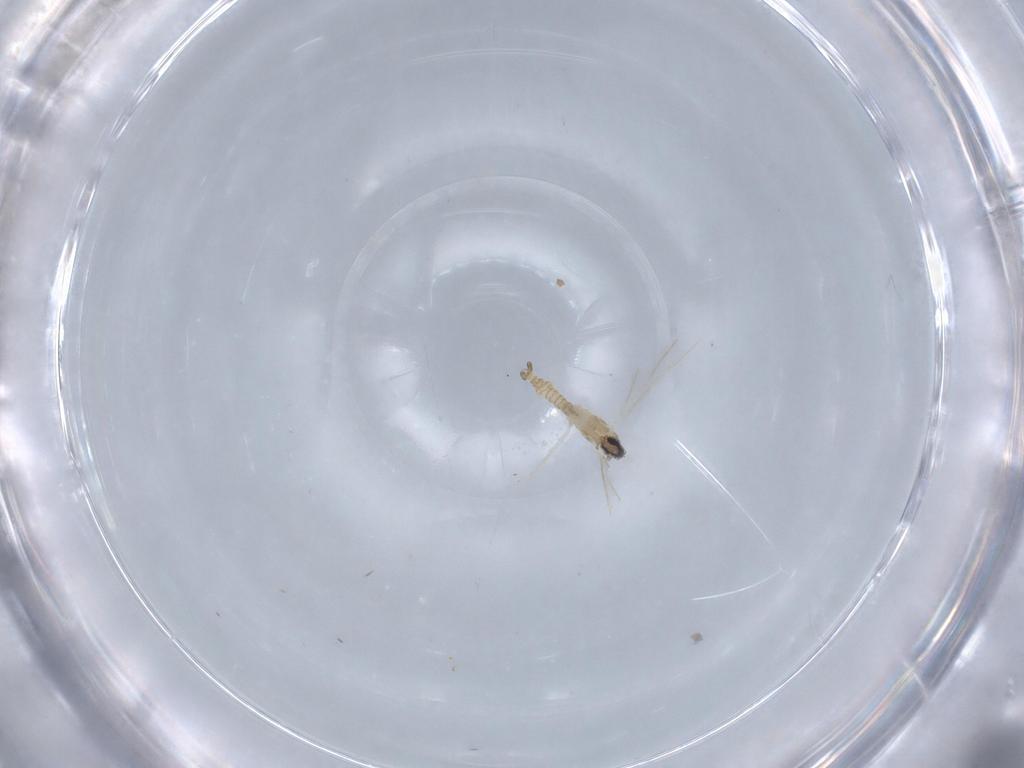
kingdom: Animalia
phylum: Arthropoda
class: Insecta
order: Diptera
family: Cecidomyiidae
